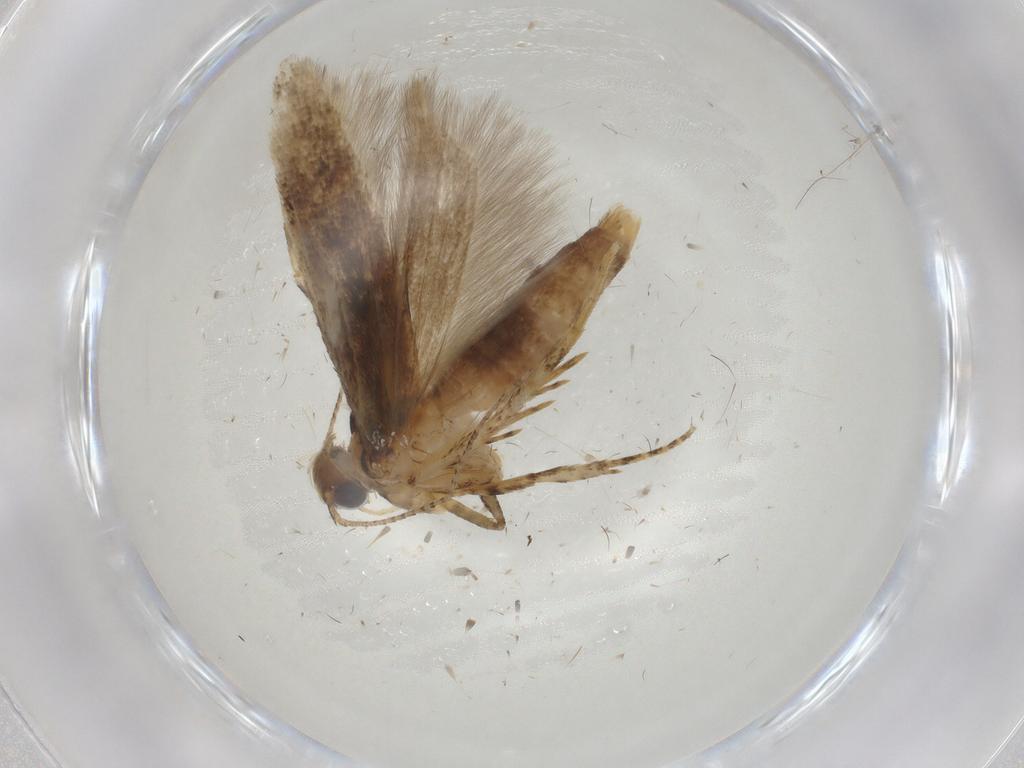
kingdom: Animalia
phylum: Arthropoda
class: Insecta
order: Lepidoptera
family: Gelechiidae
